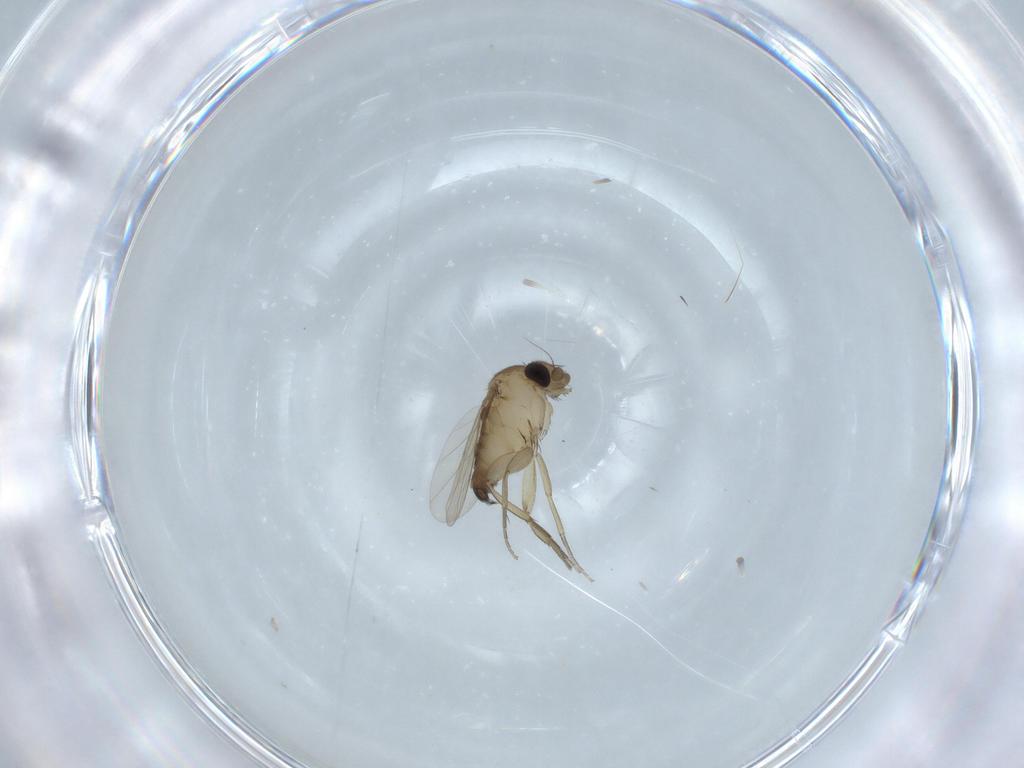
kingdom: Animalia
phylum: Arthropoda
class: Insecta
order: Diptera
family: Phoridae
